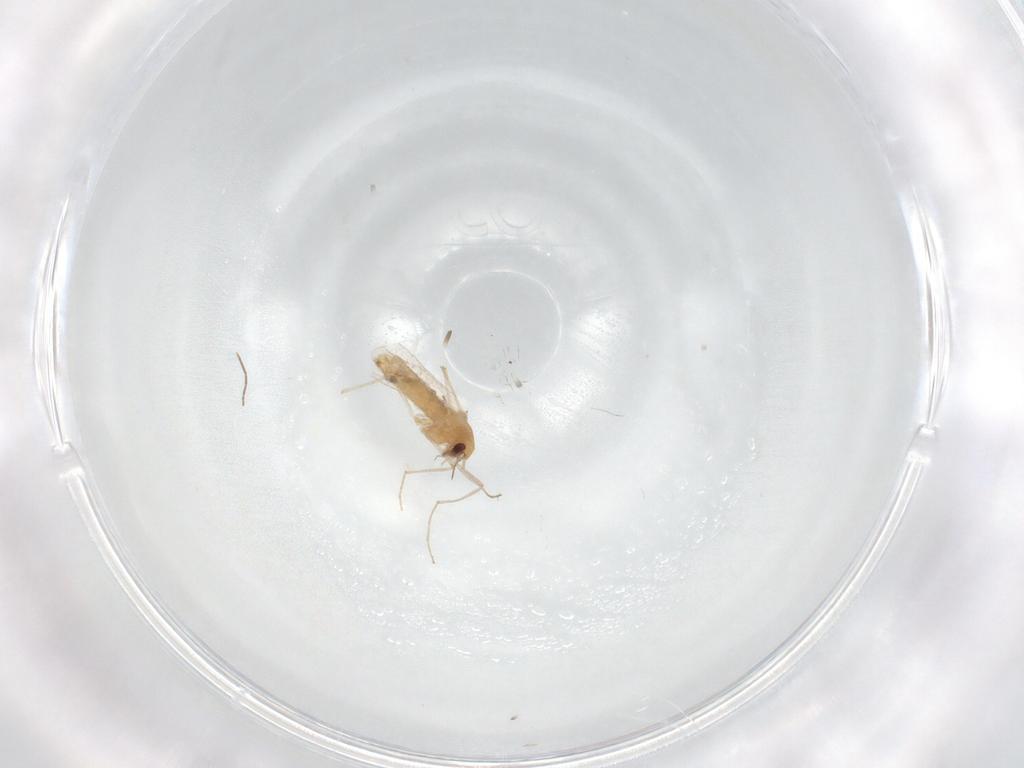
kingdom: Animalia
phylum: Arthropoda
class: Insecta
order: Diptera
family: Chironomidae
